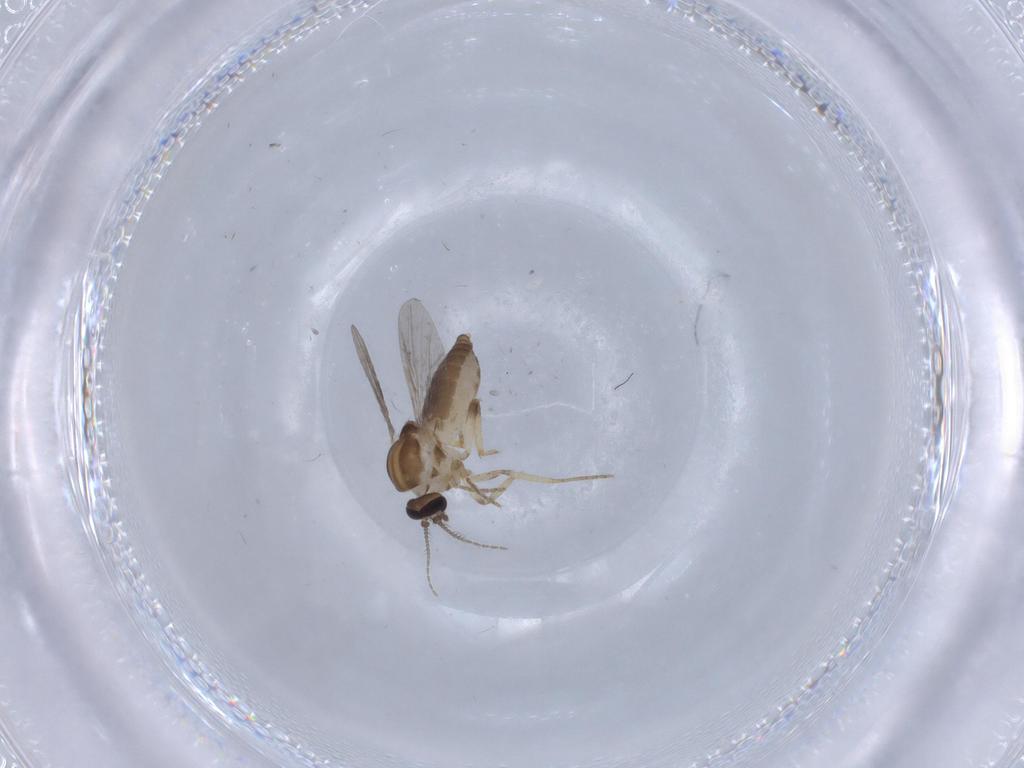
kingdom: Animalia
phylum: Arthropoda
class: Insecta
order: Diptera
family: Ceratopogonidae
